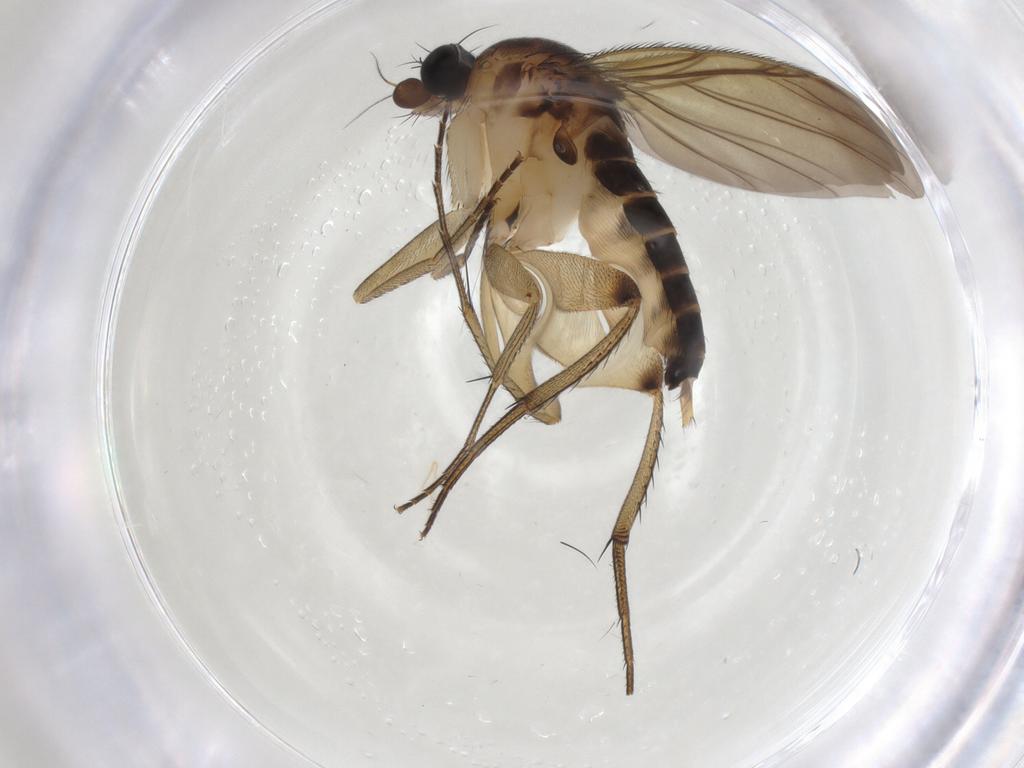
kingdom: Animalia
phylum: Arthropoda
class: Insecta
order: Diptera
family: Phoridae
